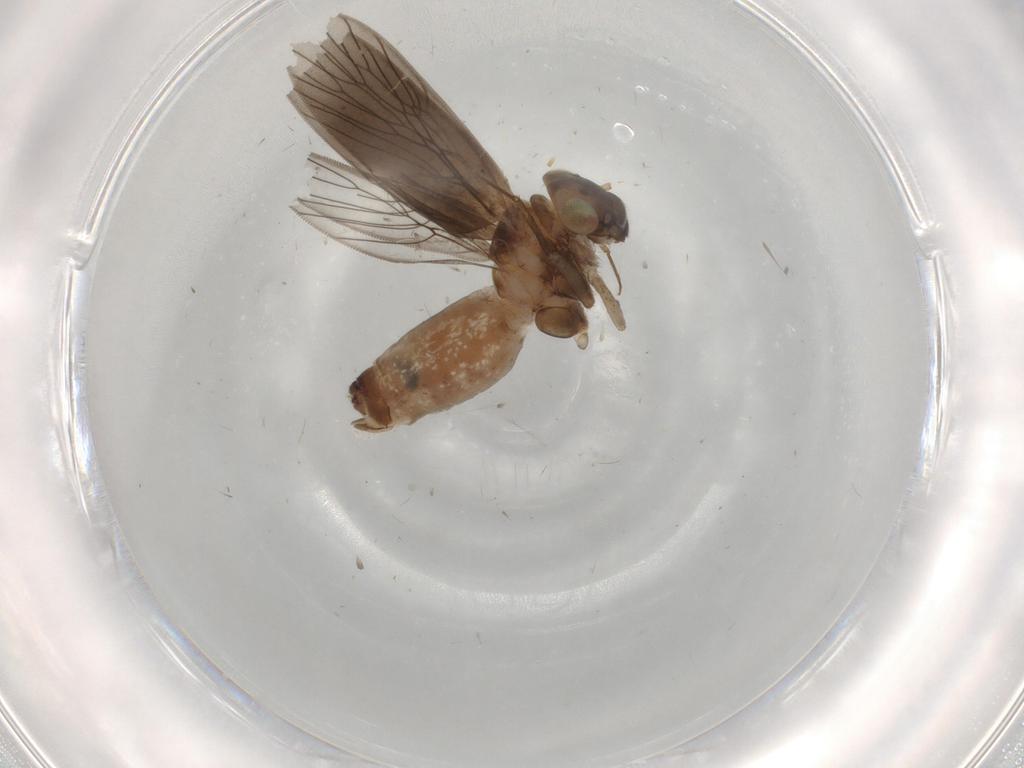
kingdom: Animalia
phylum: Arthropoda
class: Insecta
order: Psocodea
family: Lepidopsocidae
